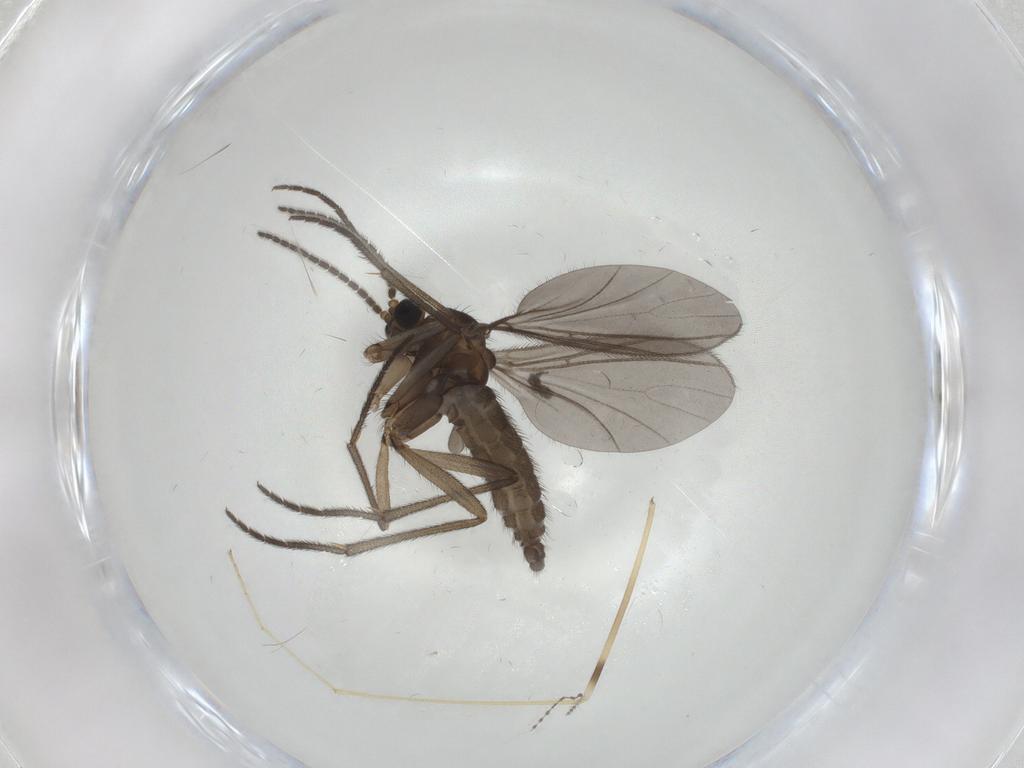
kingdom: Animalia
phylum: Arthropoda
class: Insecta
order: Diptera
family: Sciaridae
